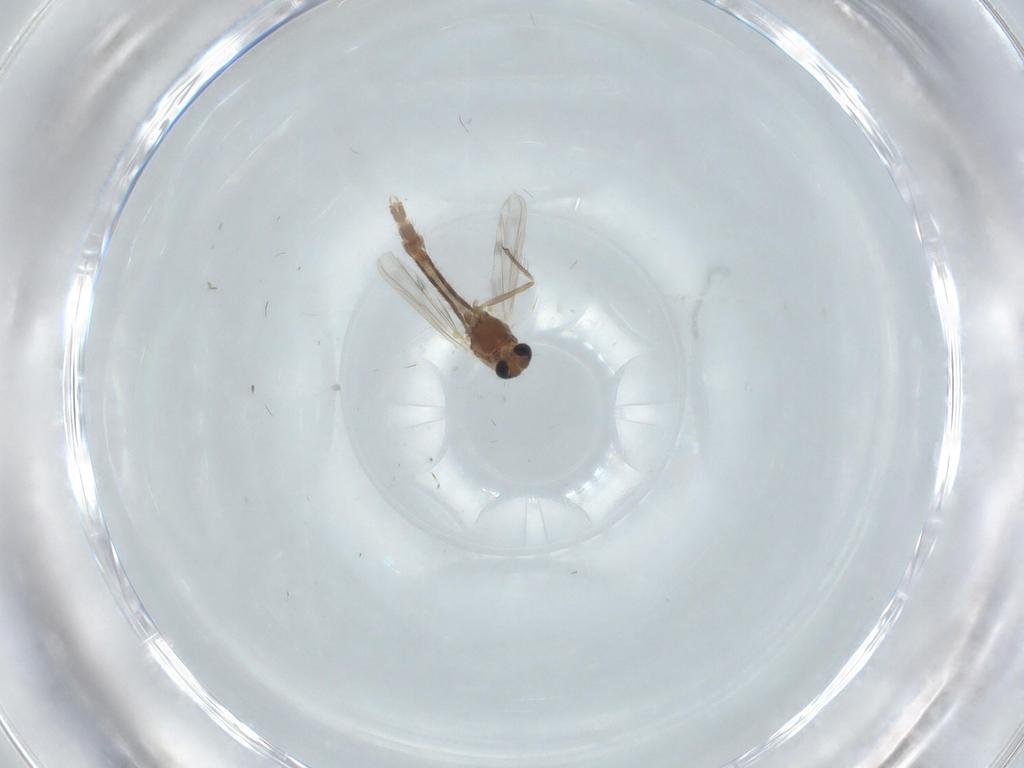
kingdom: Animalia
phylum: Arthropoda
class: Insecta
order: Diptera
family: Chironomidae
